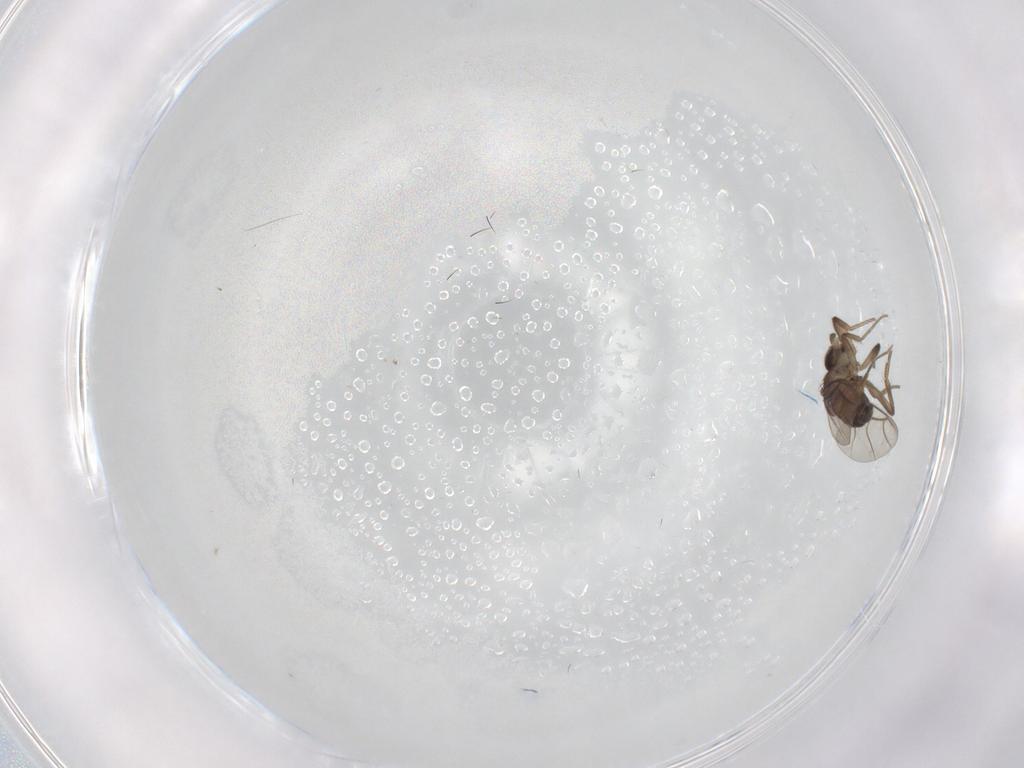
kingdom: Animalia
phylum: Arthropoda
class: Insecta
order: Diptera
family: Phoridae
